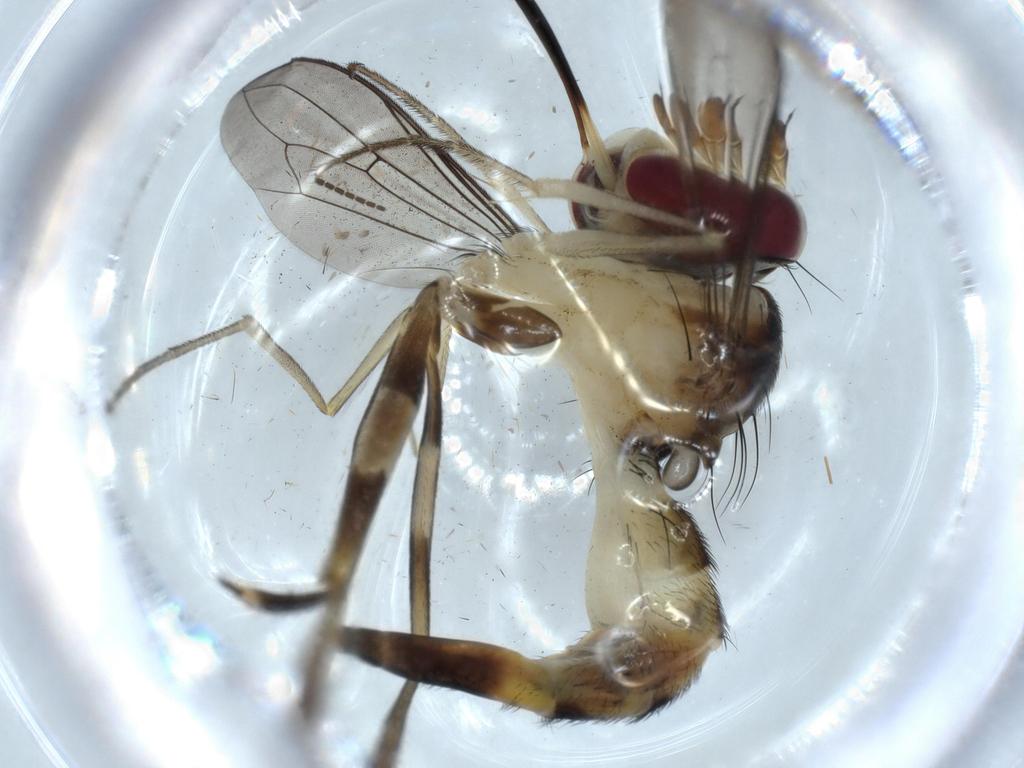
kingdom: Animalia
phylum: Arthropoda
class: Insecta
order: Diptera
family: Conopidae
